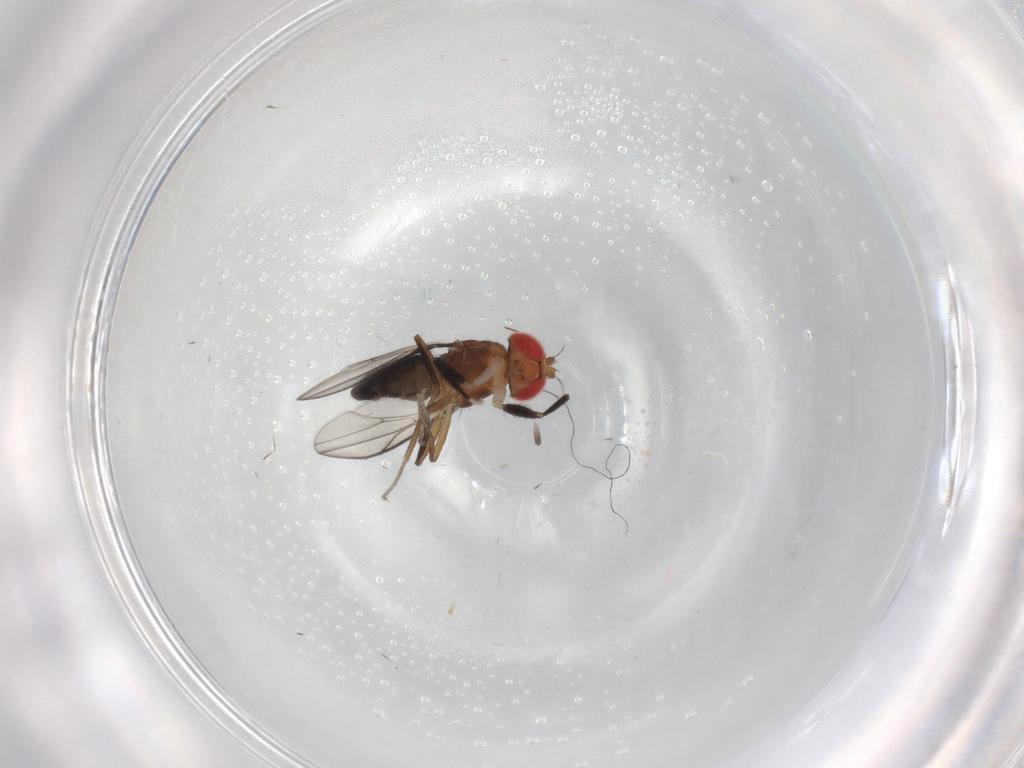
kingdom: Animalia
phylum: Arthropoda
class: Insecta
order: Diptera
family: Drosophilidae
